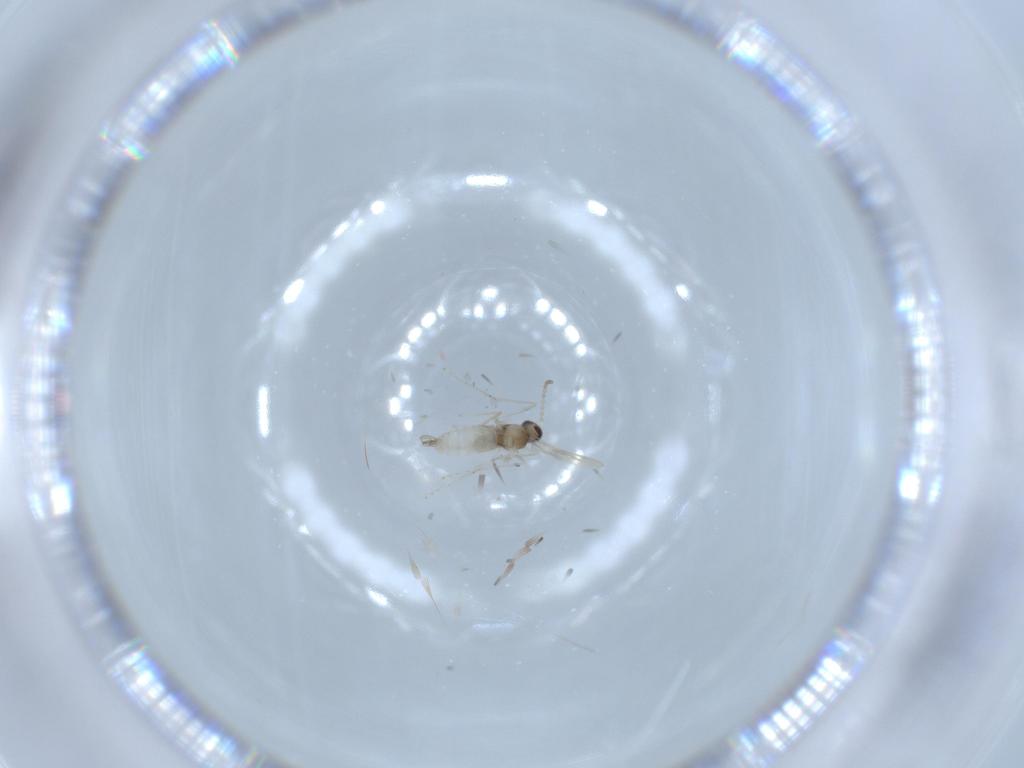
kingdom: Animalia
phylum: Arthropoda
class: Insecta
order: Diptera
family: Cecidomyiidae
